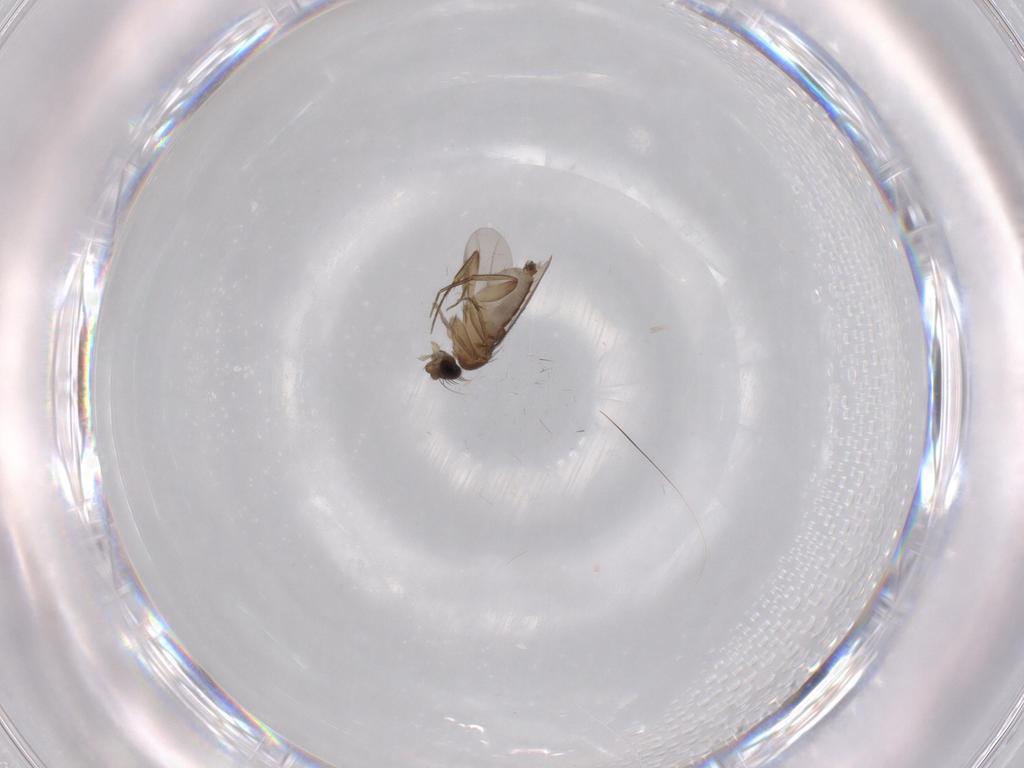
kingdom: Animalia
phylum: Arthropoda
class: Insecta
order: Diptera
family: Phoridae
